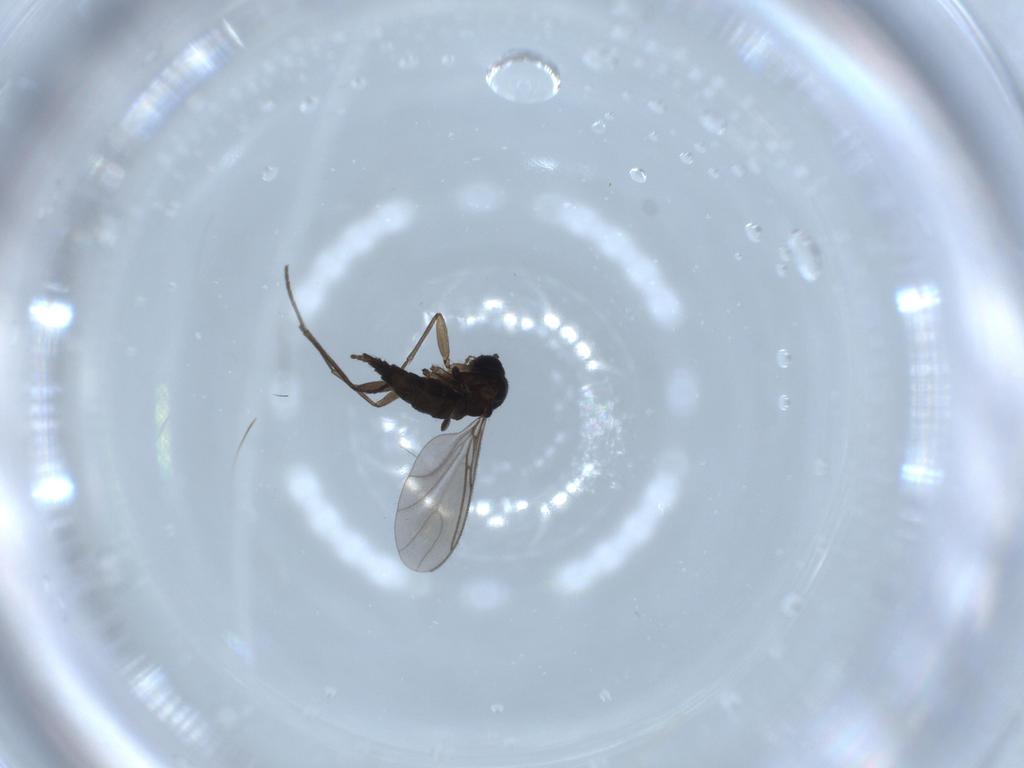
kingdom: Animalia
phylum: Arthropoda
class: Insecta
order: Diptera
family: Sciaridae
